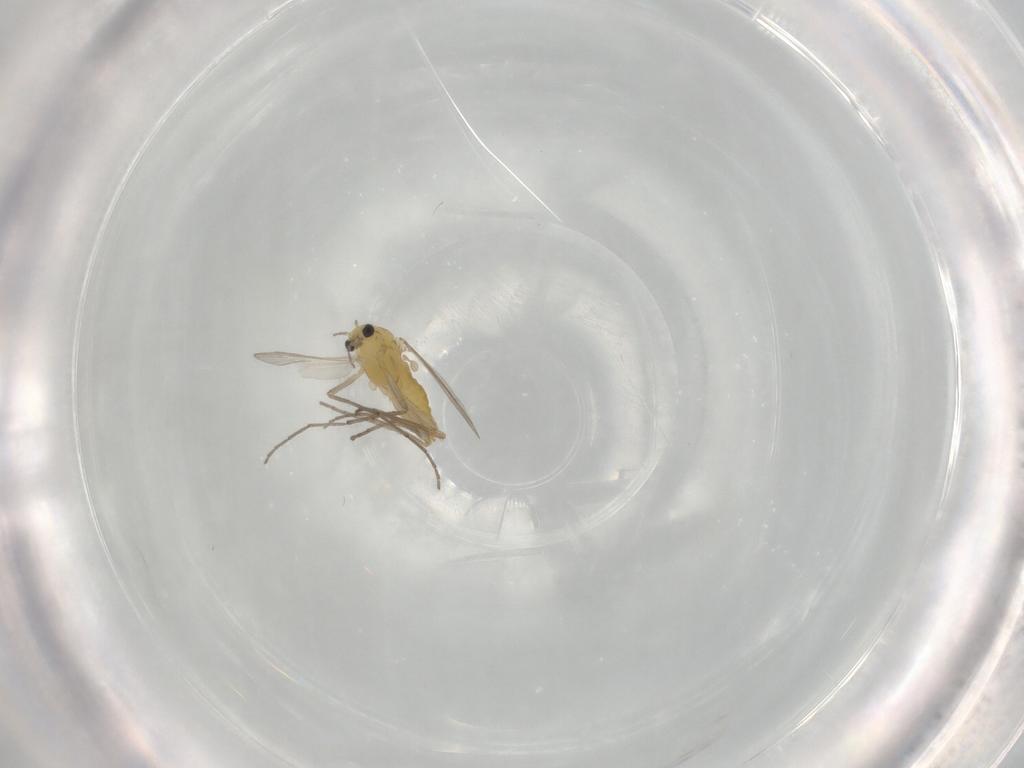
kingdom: Animalia
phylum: Arthropoda
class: Insecta
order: Diptera
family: Chironomidae
